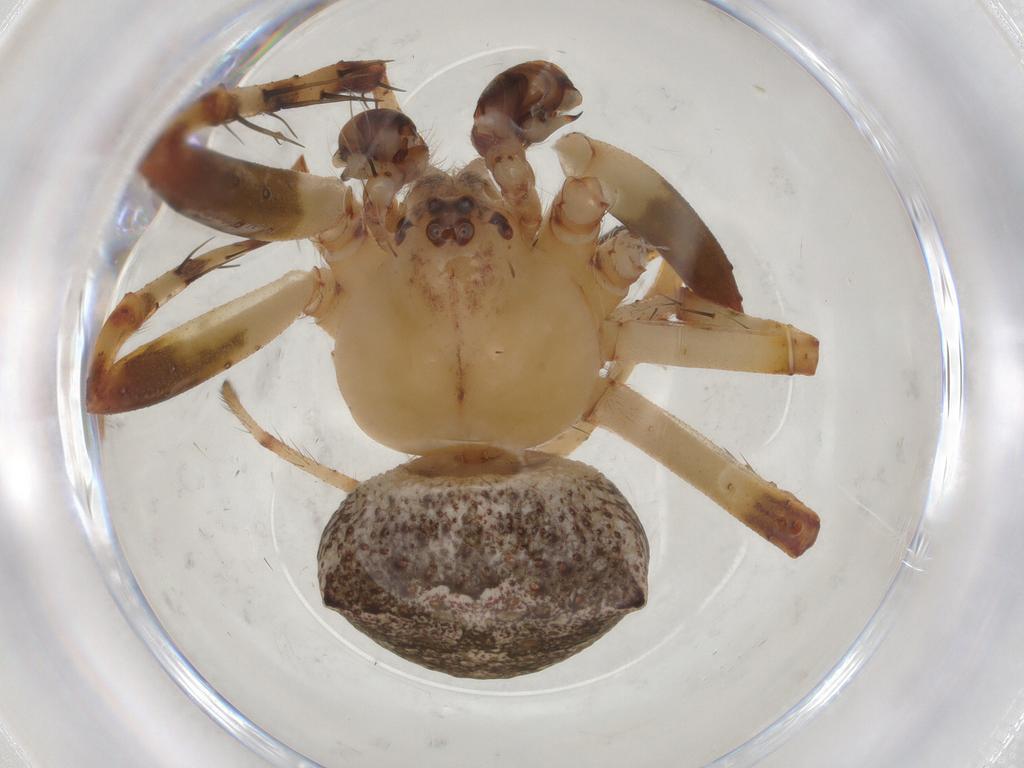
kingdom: Animalia
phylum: Arthropoda
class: Arachnida
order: Araneae
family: Araneidae
